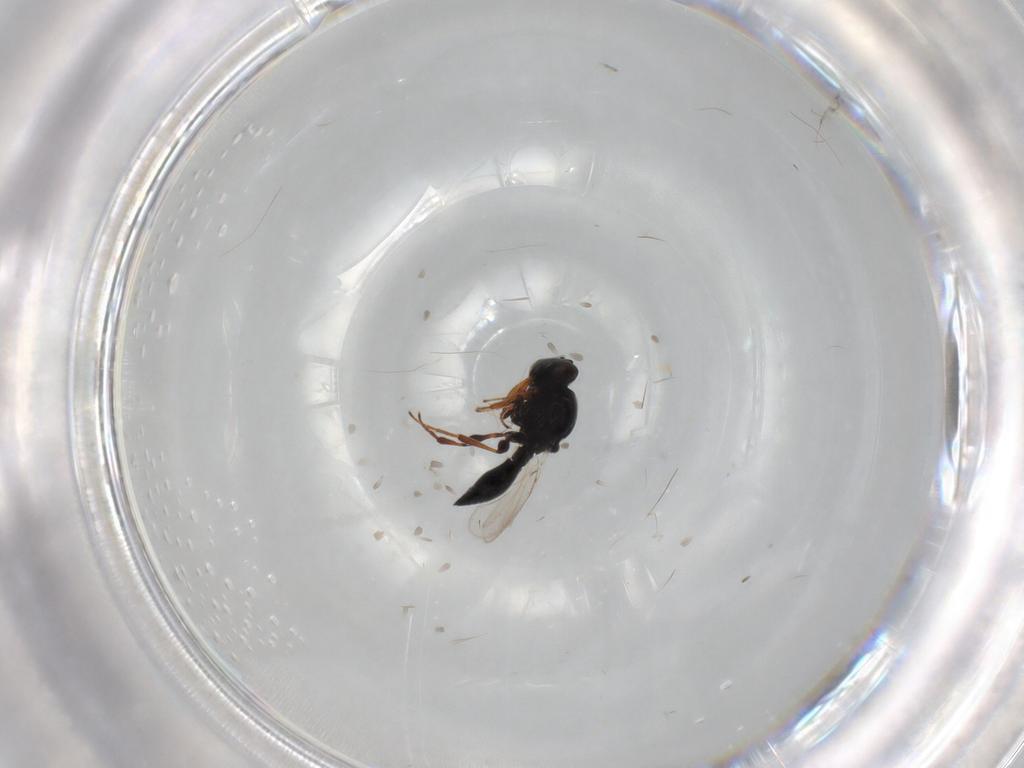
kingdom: Animalia
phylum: Arthropoda
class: Insecta
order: Hymenoptera
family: Platygastridae
